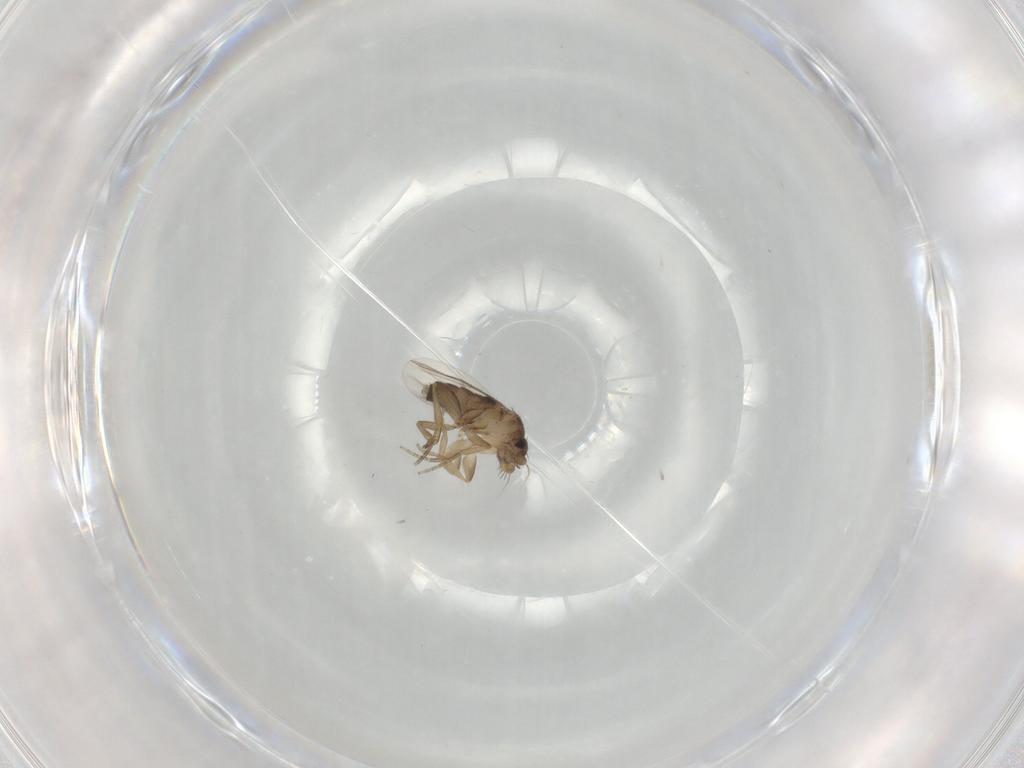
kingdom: Animalia
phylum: Arthropoda
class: Insecta
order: Diptera
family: Phoridae
